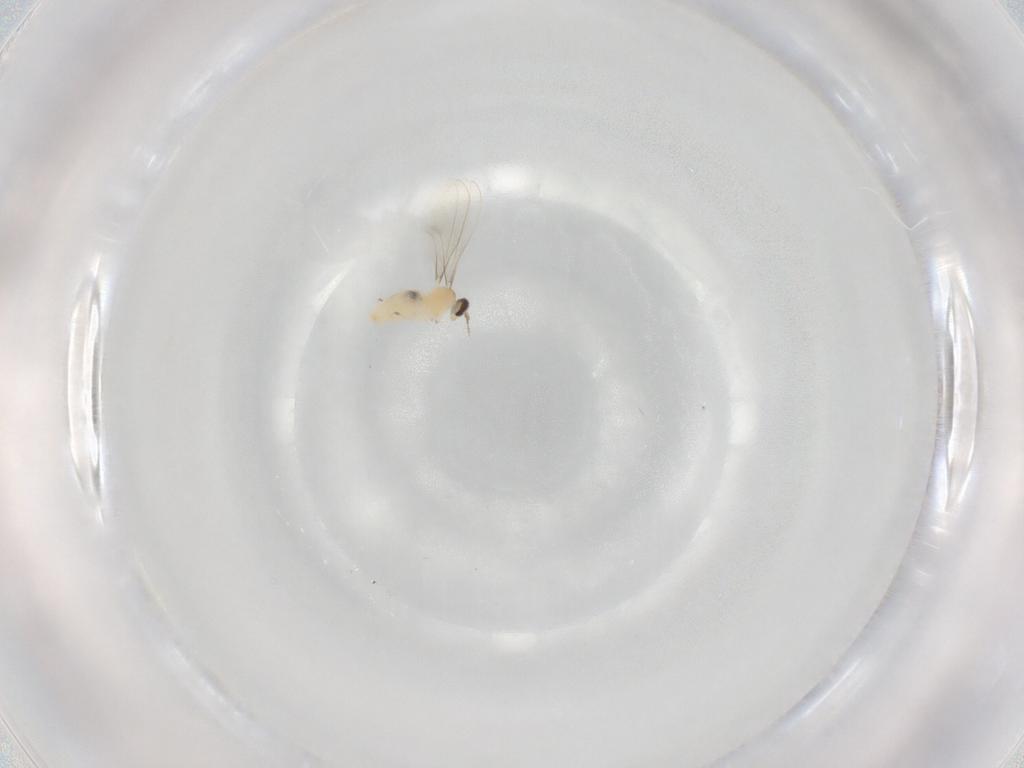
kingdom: Animalia
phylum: Arthropoda
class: Insecta
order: Diptera
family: Cecidomyiidae
